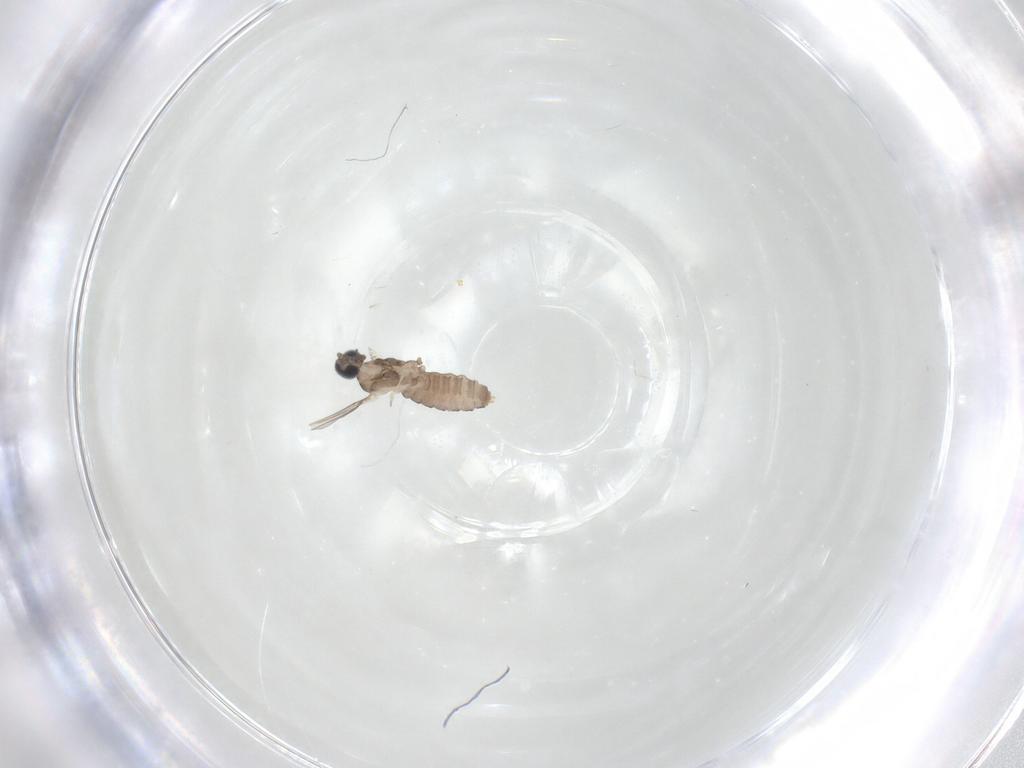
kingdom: Animalia
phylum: Arthropoda
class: Insecta
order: Diptera
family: Cecidomyiidae
